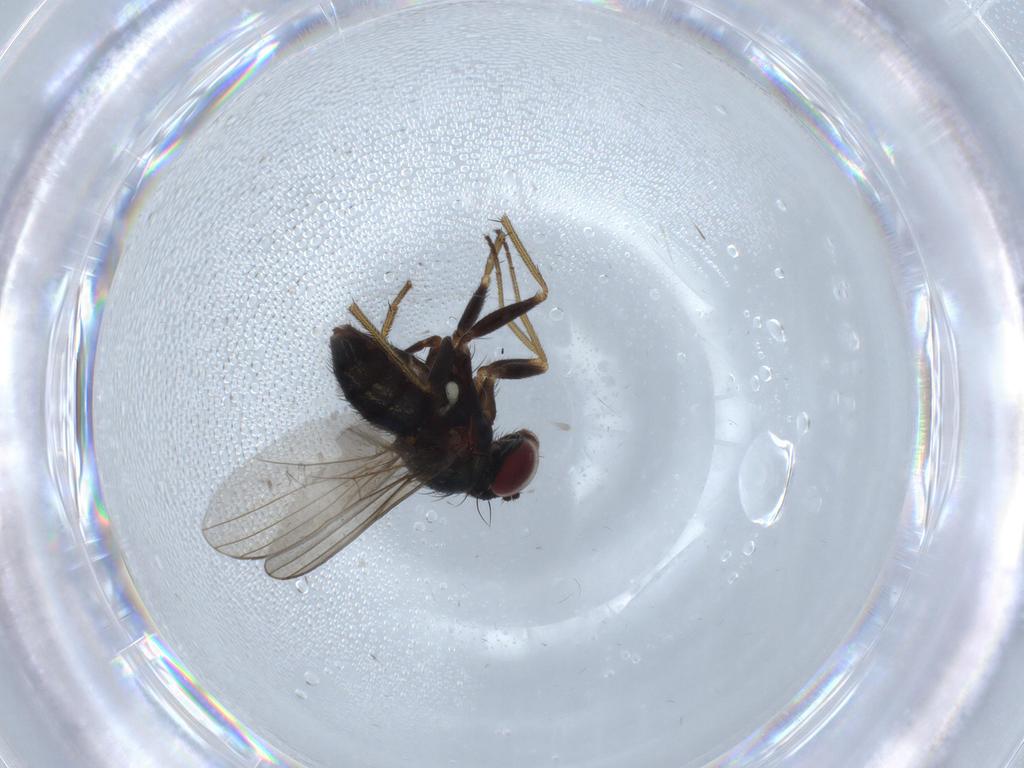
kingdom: Animalia
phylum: Arthropoda
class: Insecta
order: Diptera
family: Dolichopodidae
